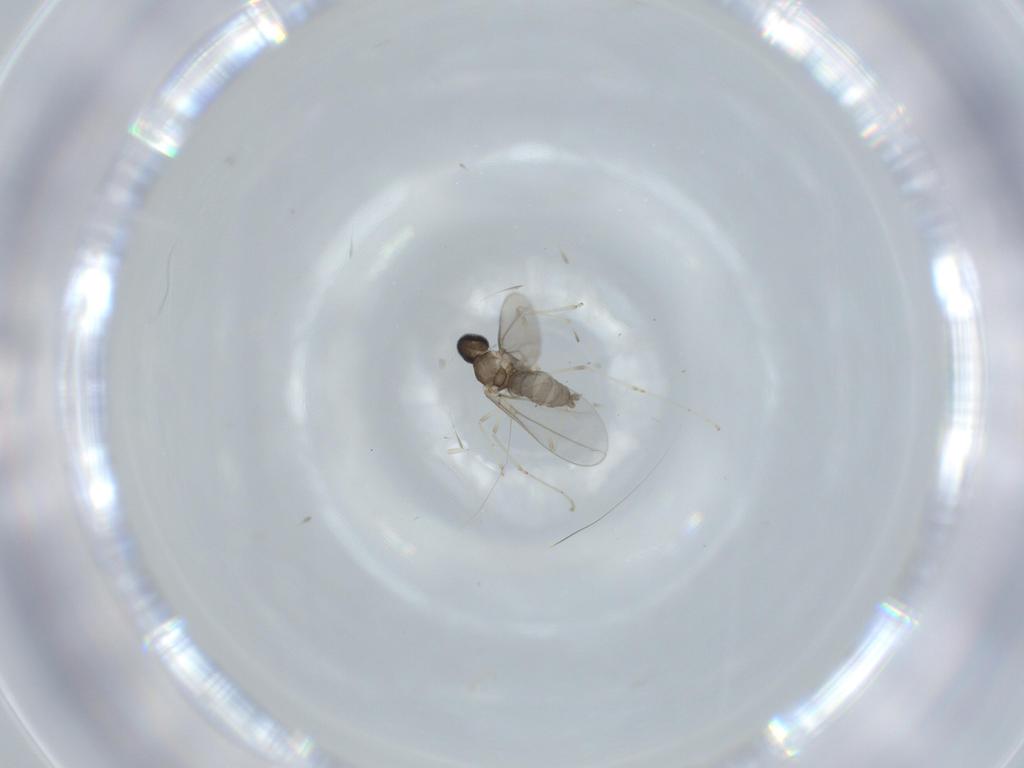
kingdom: Animalia
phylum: Arthropoda
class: Insecta
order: Diptera
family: Cecidomyiidae
